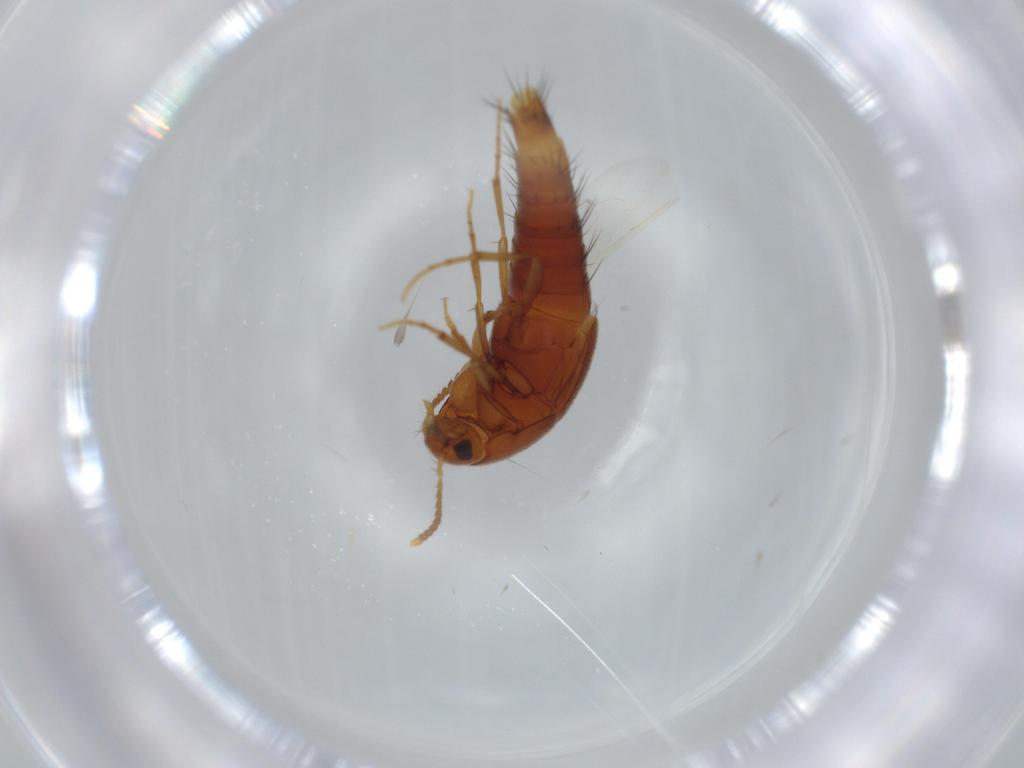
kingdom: Animalia
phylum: Arthropoda
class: Insecta
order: Coleoptera
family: Staphylinidae
